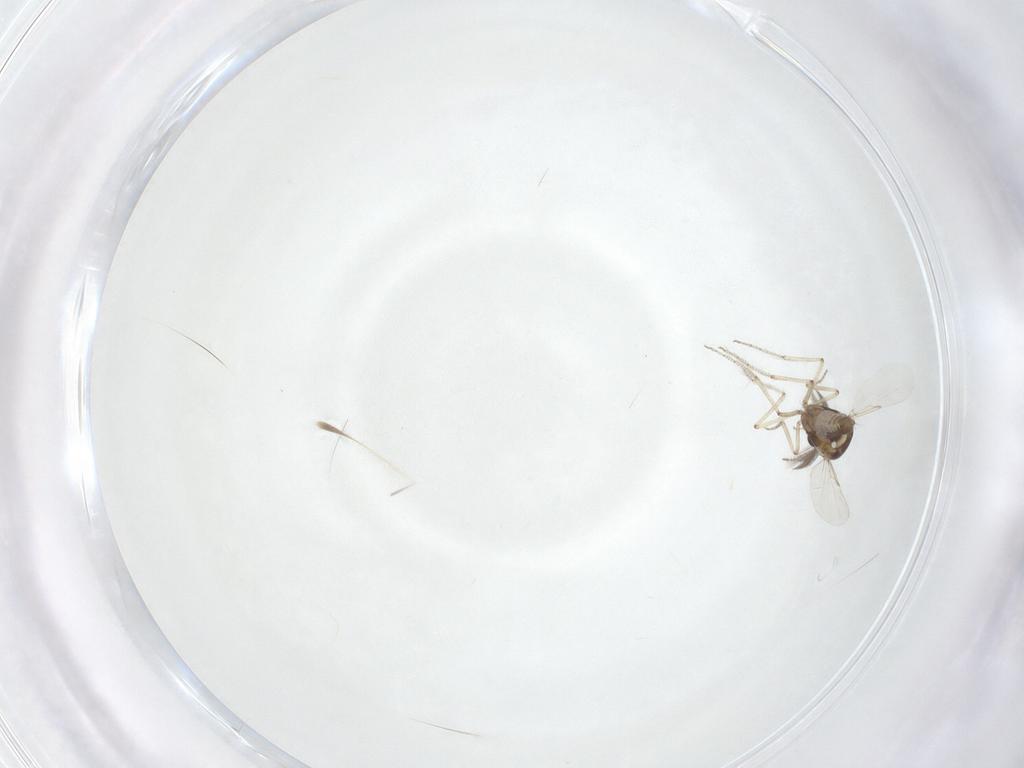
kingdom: Animalia
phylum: Arthropoda
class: Insecta
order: Diptera
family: Ceratopogonidae
